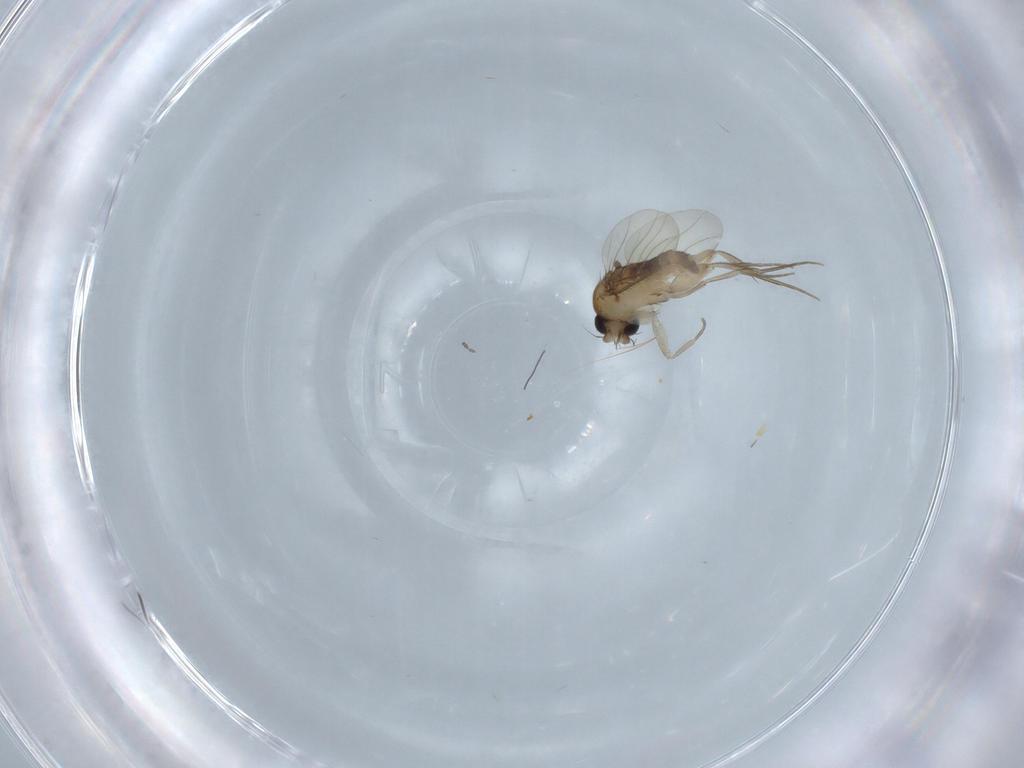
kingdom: Animalia
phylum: Arthropoda
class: Insecta
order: Diptera
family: Phoridae
